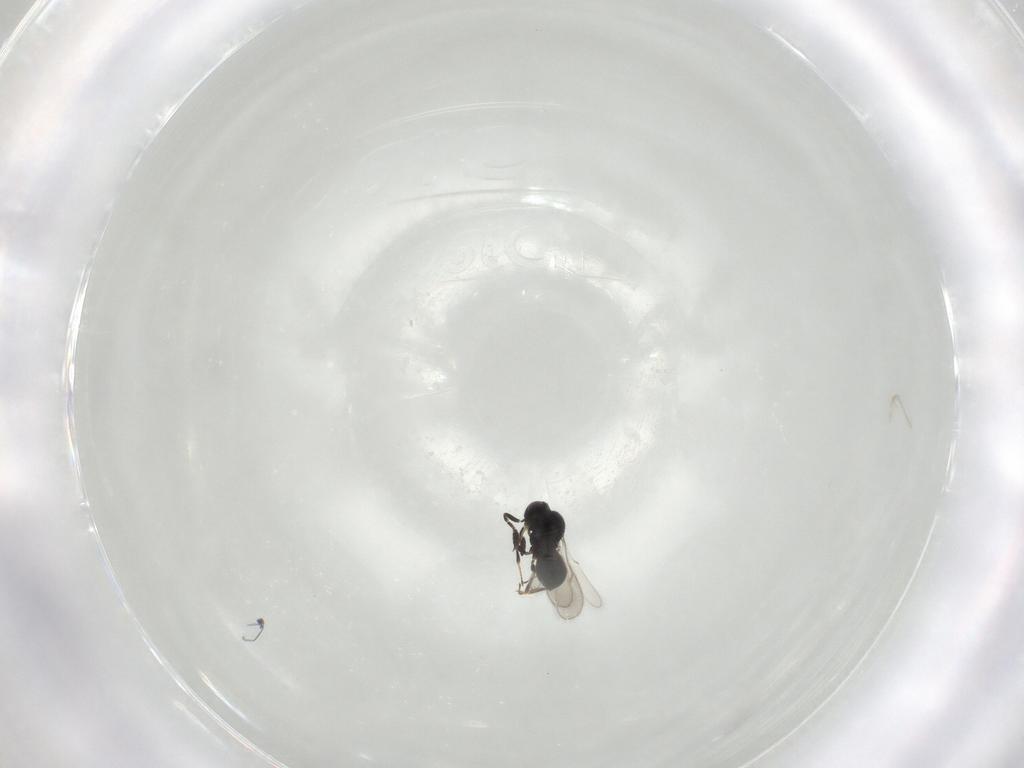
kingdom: Animalia
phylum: Arthropoda
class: Insecta
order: Hymenoptera
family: Scelionidae
